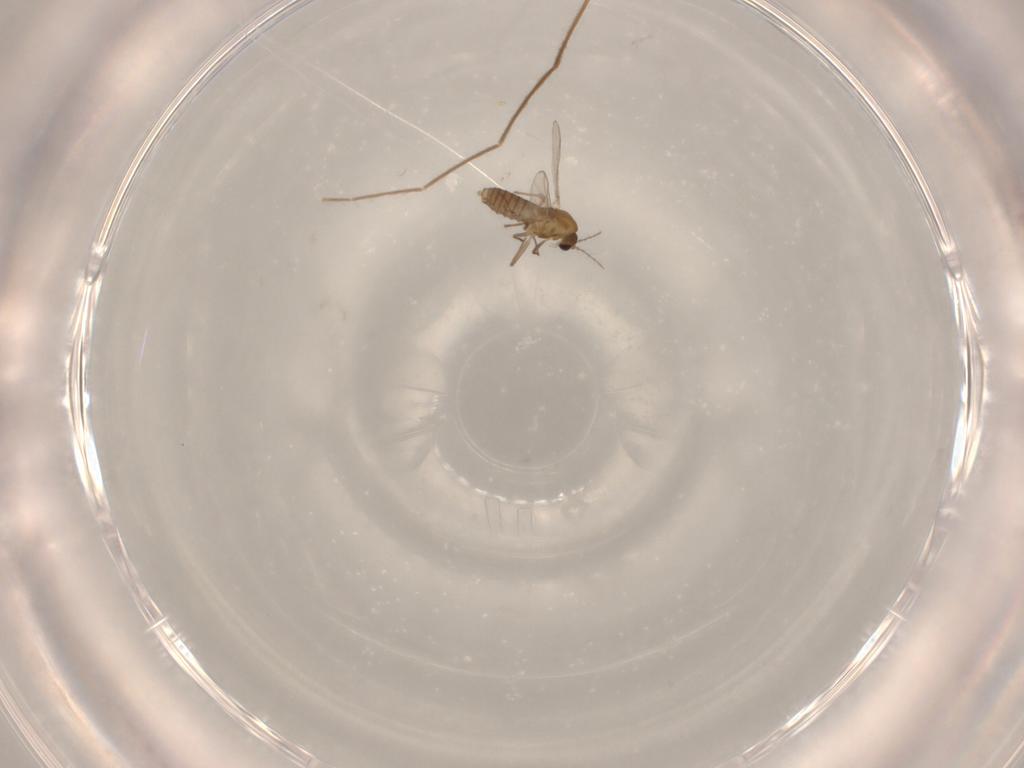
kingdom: Animalia
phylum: Arthropoda
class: Insecta
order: Diptera
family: Chironomidae
